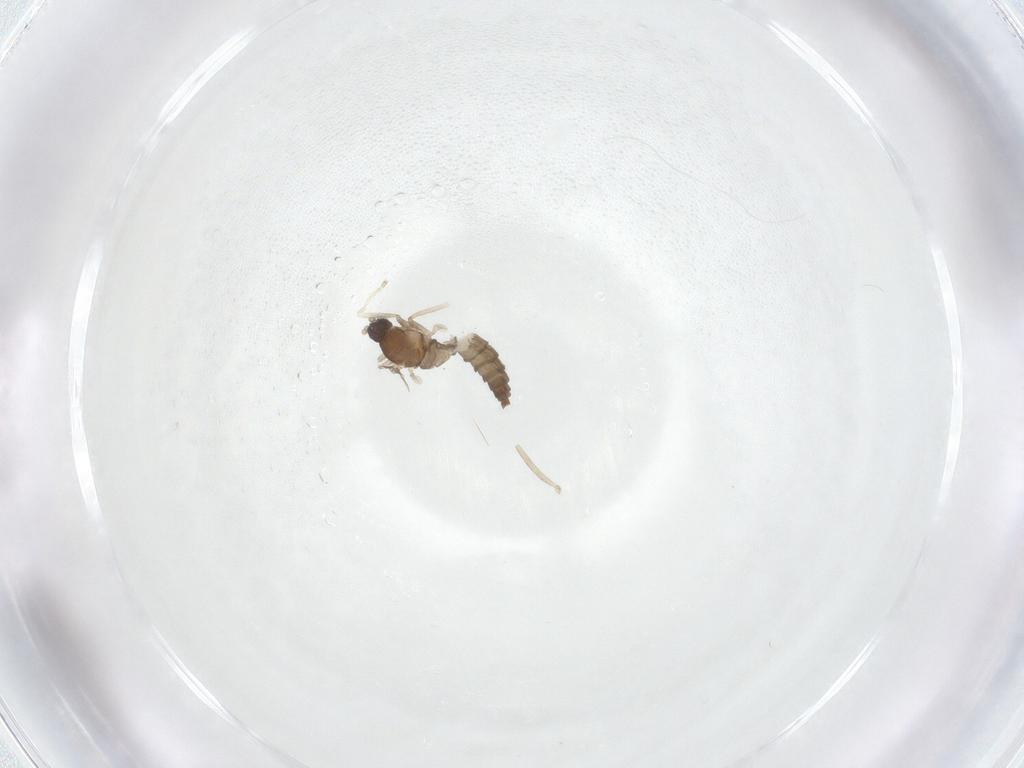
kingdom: Animalia
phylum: Arthropoda
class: Insecta
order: Diptera
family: Cecidomyiidae
